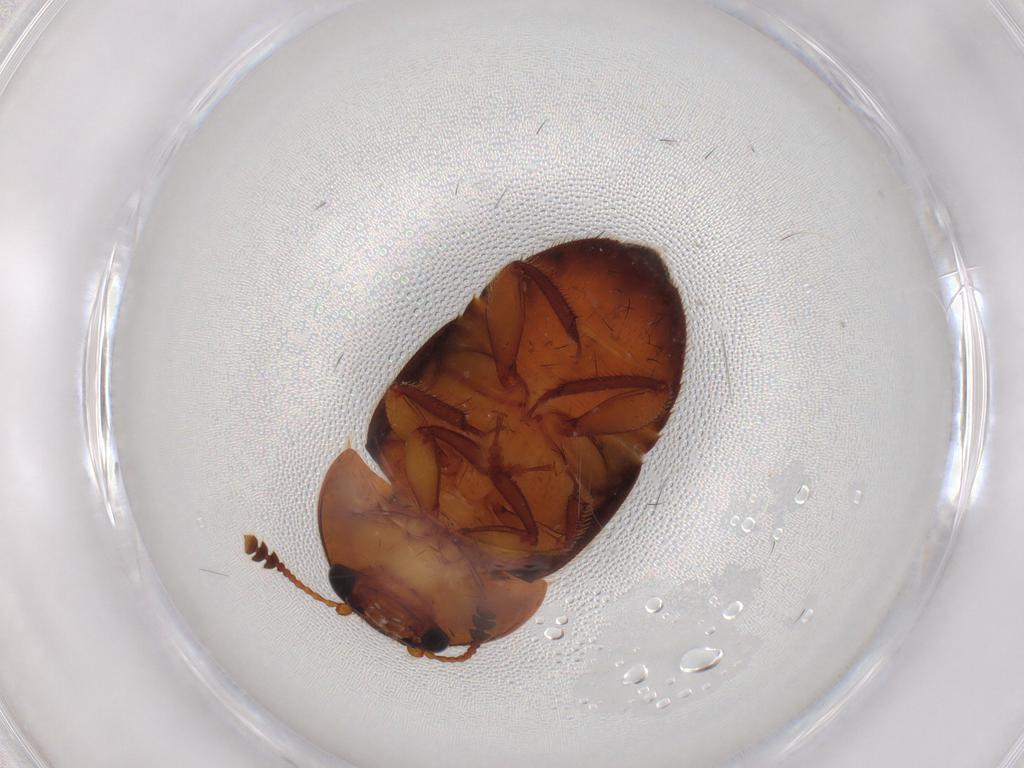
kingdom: Animalia
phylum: Arthropoda
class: Insecta
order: Coleoptera
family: Nitidulidae
